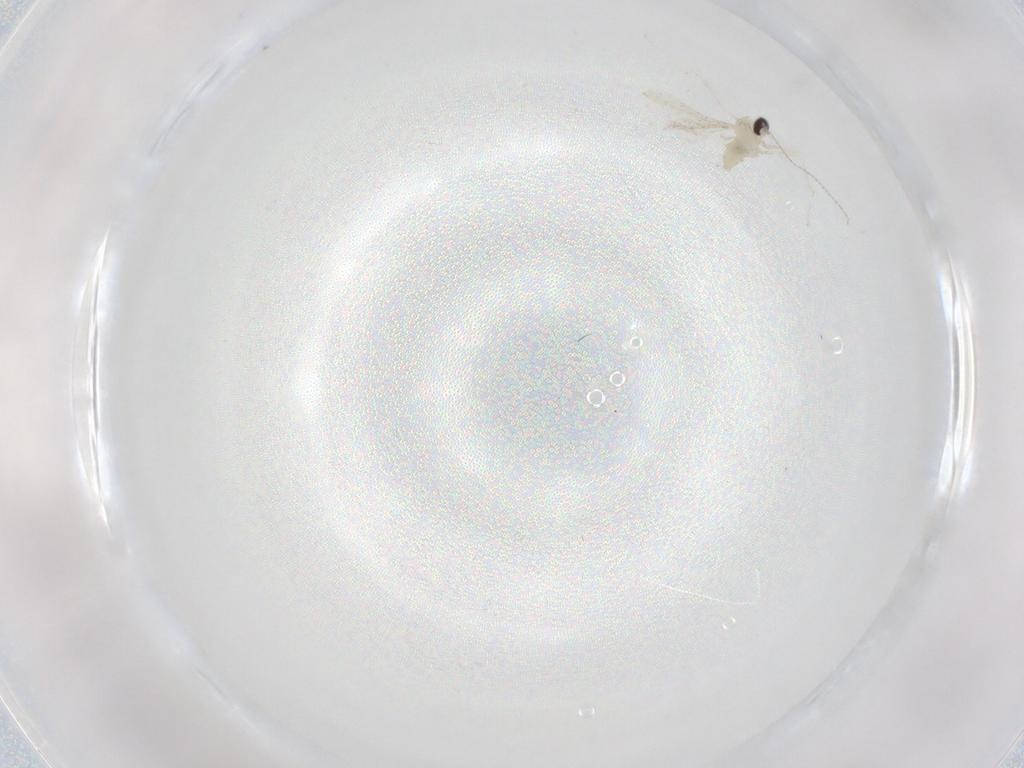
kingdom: Animalia
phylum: Arthropoda
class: Insecta
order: Diptera
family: Cecidomyiidae
